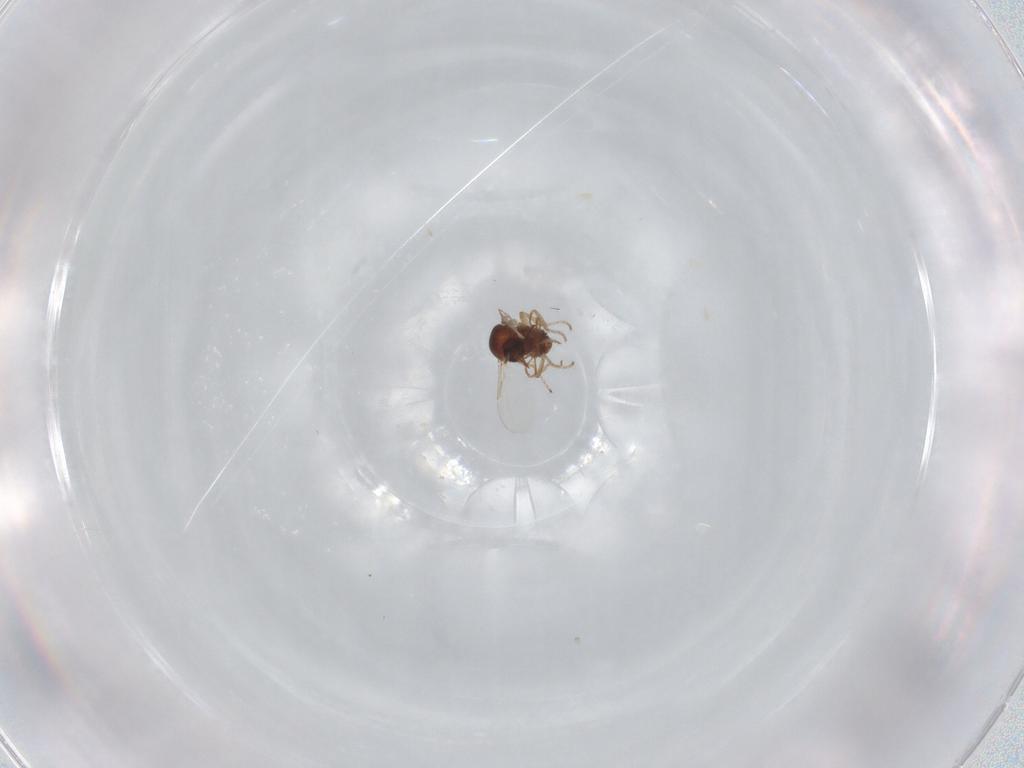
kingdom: Animalia
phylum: Arthropoda
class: Insecta
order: Diptera
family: Ceratopogonidae
